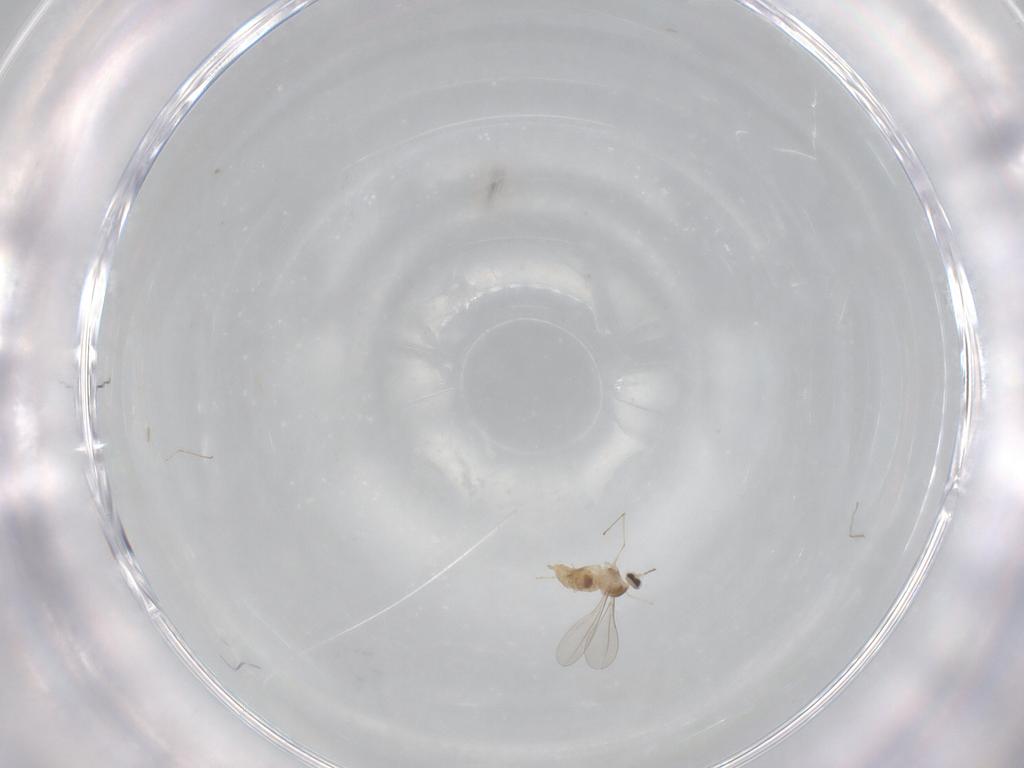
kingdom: Animalia
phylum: Arthropoda
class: Insecta
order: Diptera
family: Cecidomyiidae
